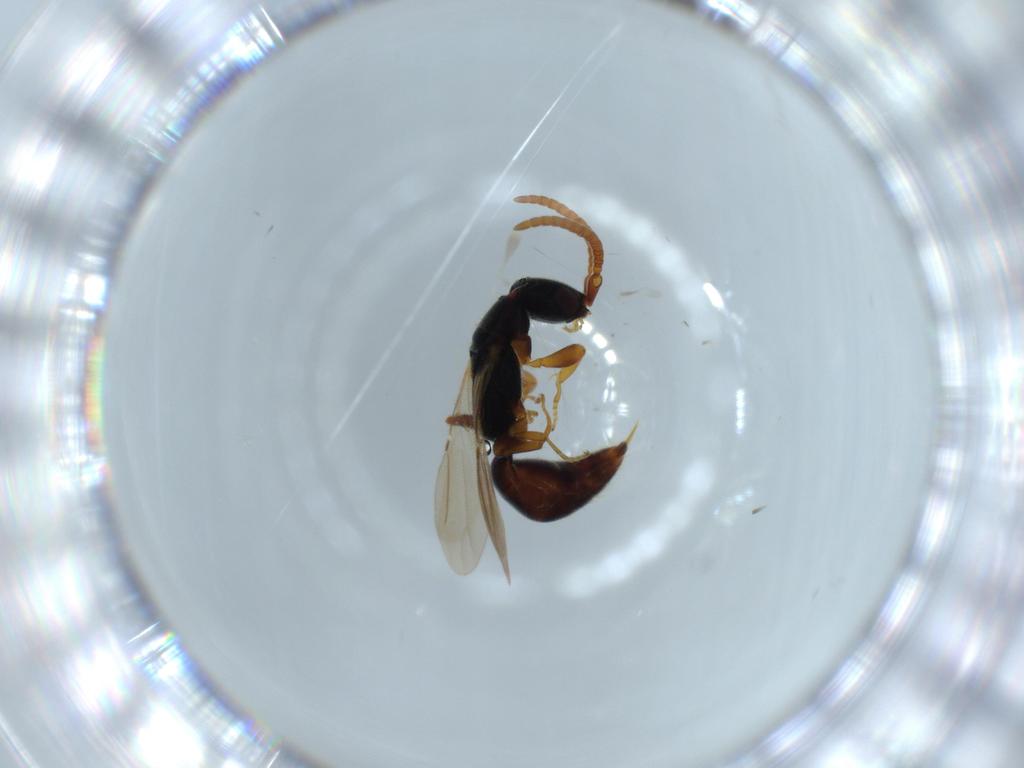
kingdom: Animalia
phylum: Arthropoda
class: Insecta
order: Hymenoptera
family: Bethylidae
